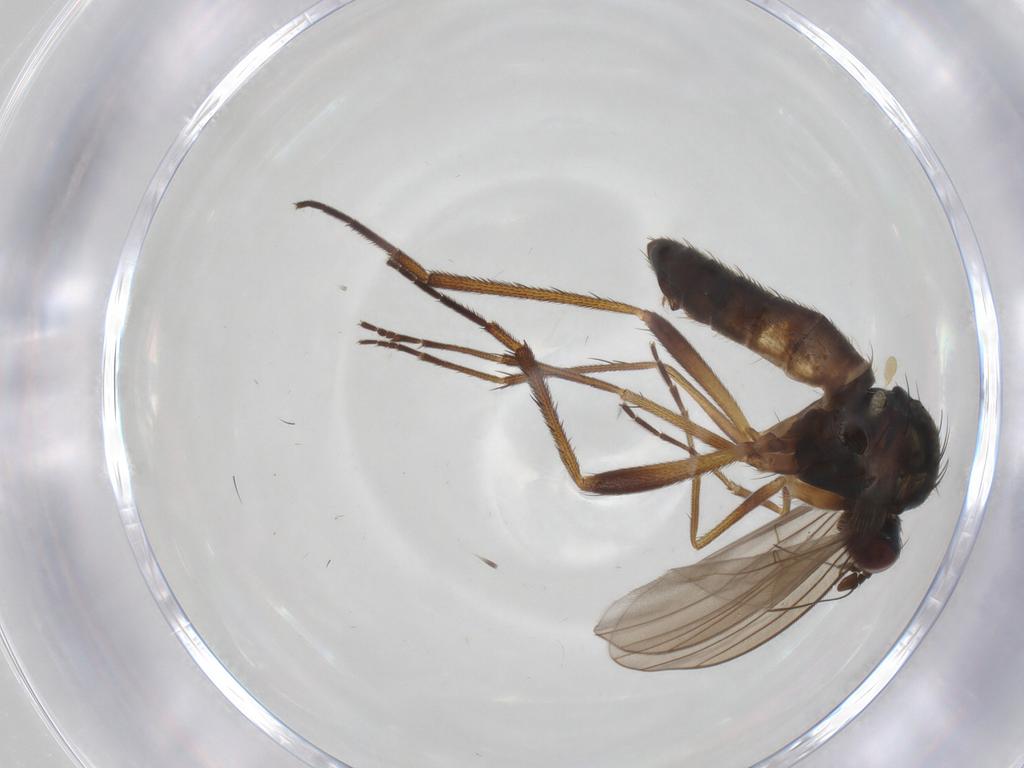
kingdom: Animalia
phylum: Arthropoda
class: Insecta
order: Diptera
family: Dolichopodidae
